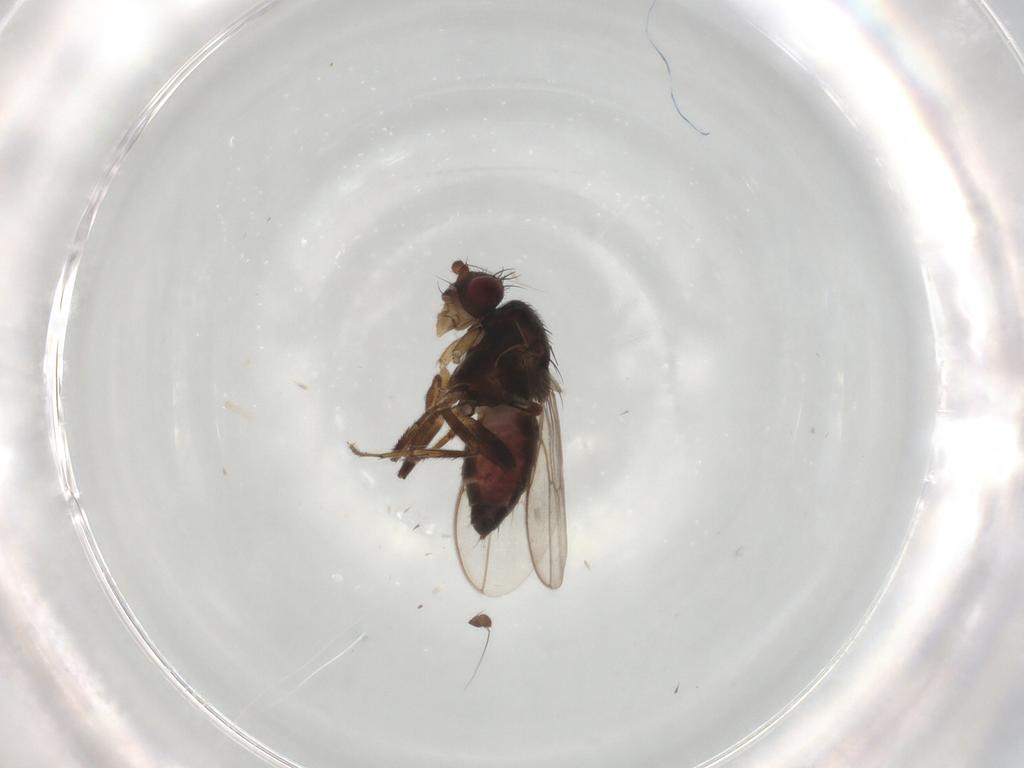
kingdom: Animalia
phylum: Arthropoda
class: Insecta
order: Diptera
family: Sphaeroceridae
